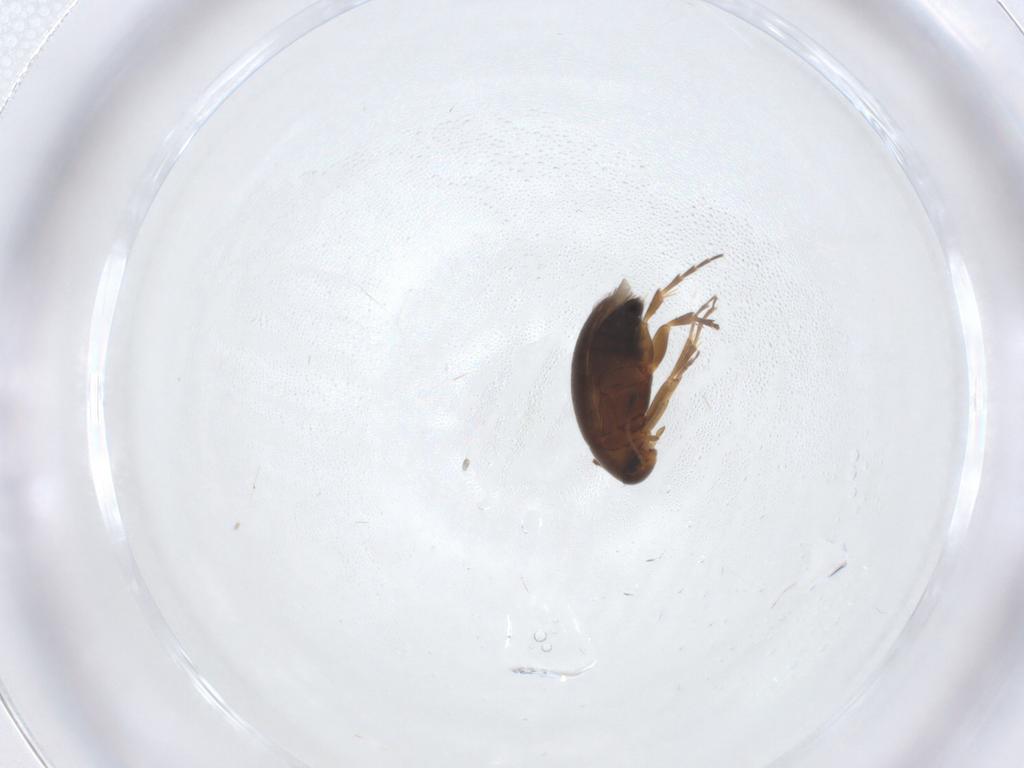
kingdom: Animalia
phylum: Arthropoda
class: Insecta
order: Coleoptera
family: Scraptiidae
